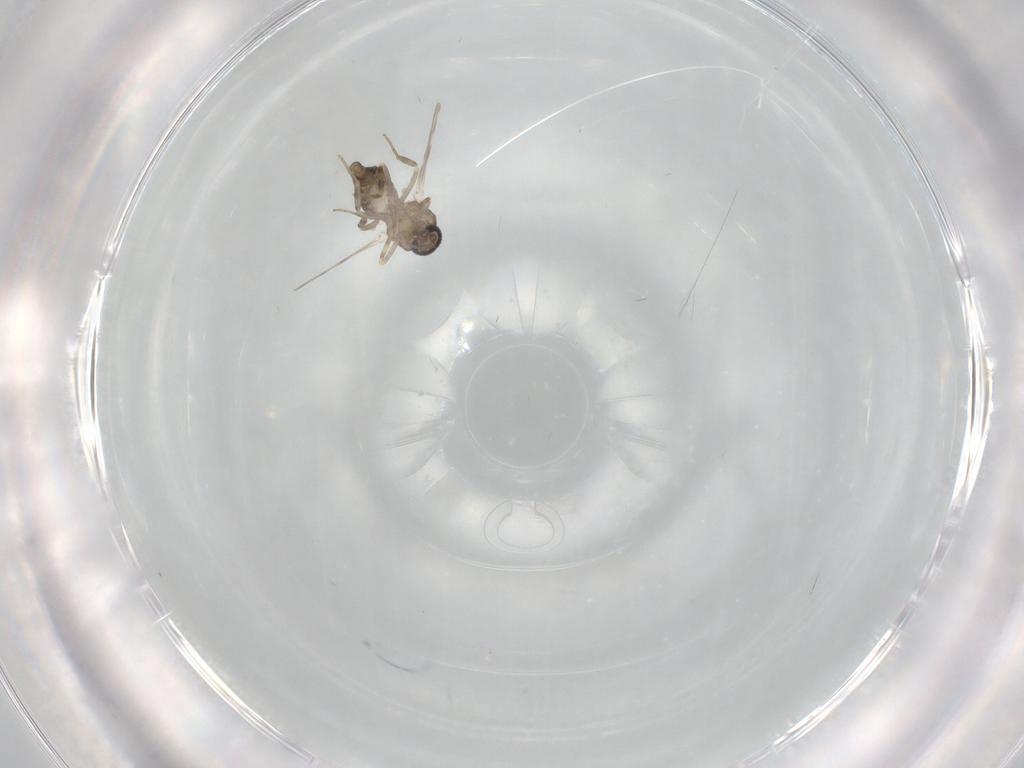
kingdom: Animalia
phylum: Arthropoda
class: Insecta
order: Diptera
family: Ceratopogonidae
